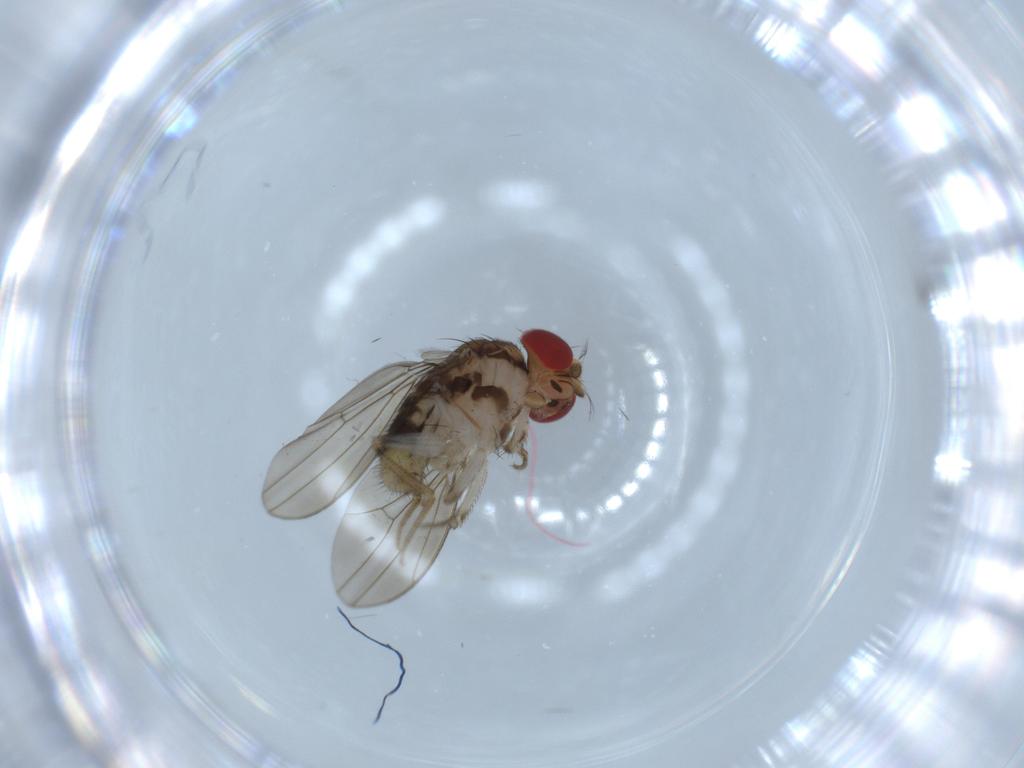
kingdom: Animalia
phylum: Arthropoda
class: Insecta
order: Diptera
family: Drosophilidae
